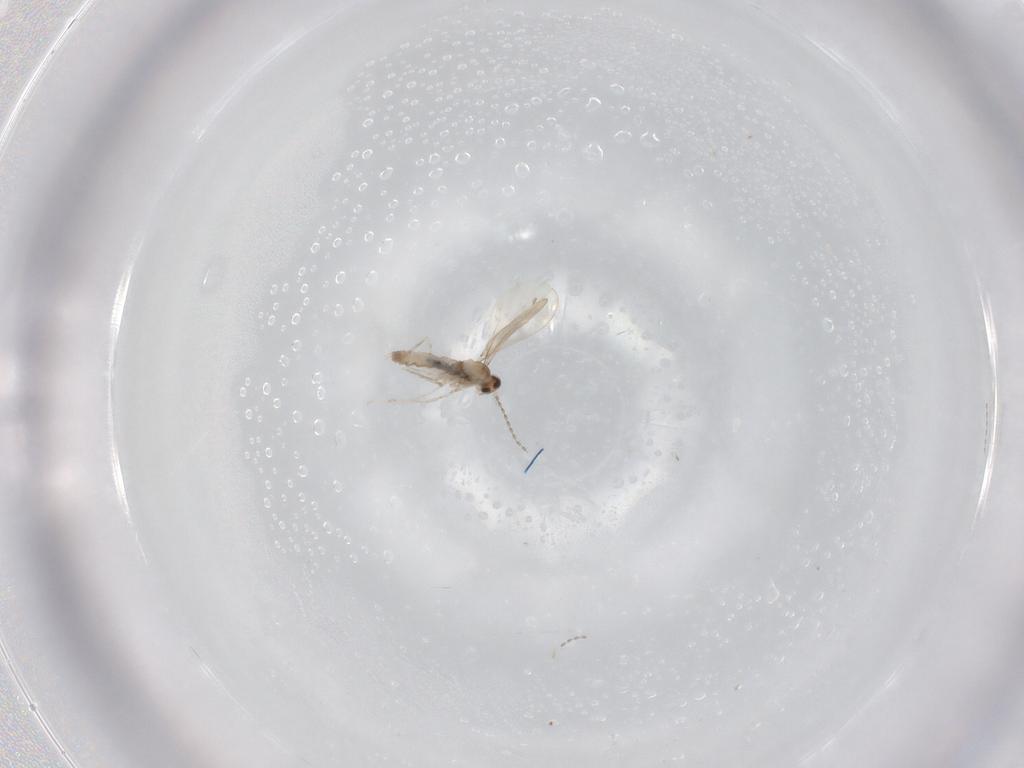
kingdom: Animalia
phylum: Arthropoda
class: Insecta
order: Diptera
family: Anisopodidae
